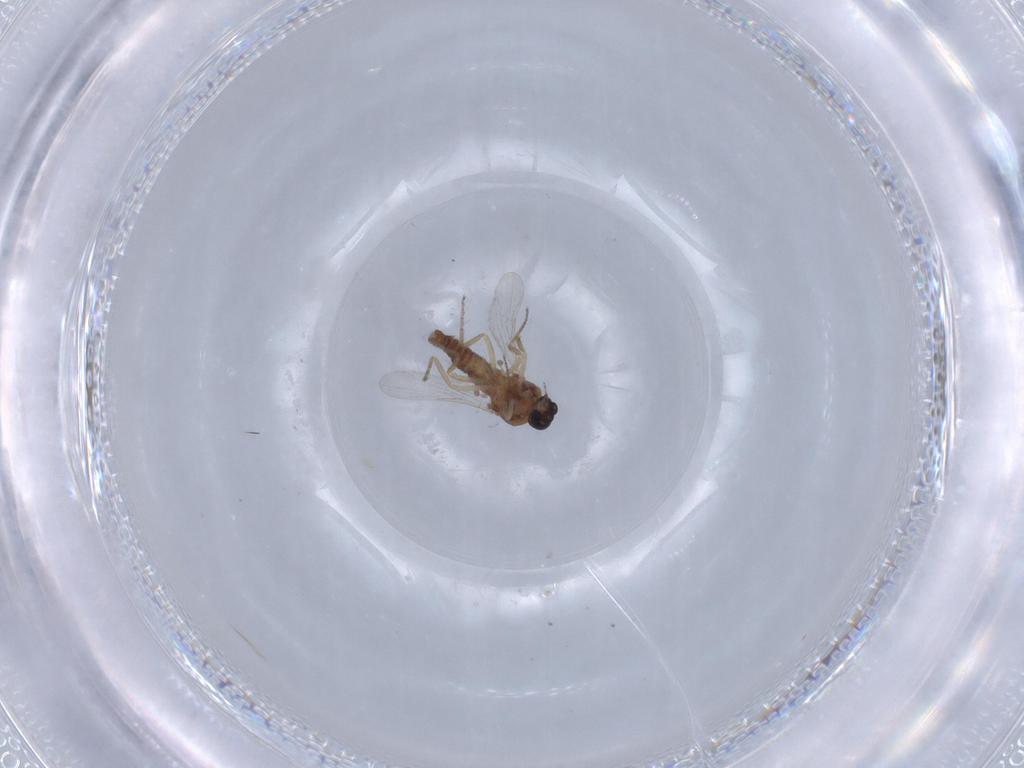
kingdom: Animalia
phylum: Arthropoda
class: Insecta
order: Diptera
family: Ceratopogonidae
